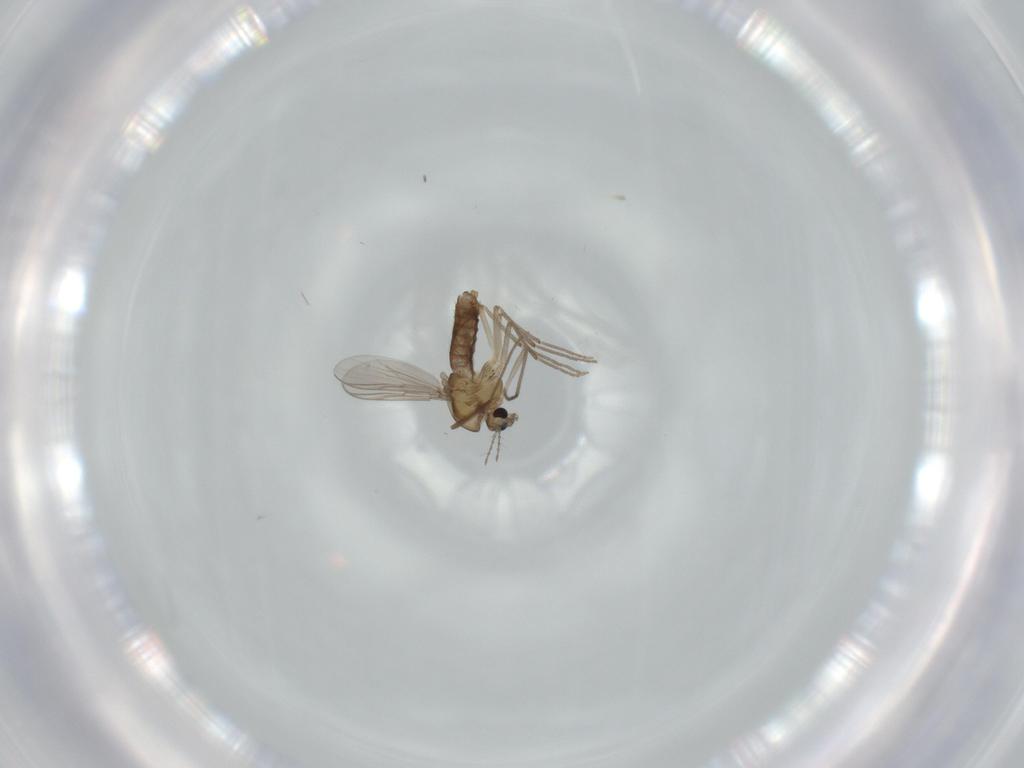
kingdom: Animalia
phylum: Arthropoda
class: Insecta
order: Diptera
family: Chironomidae
